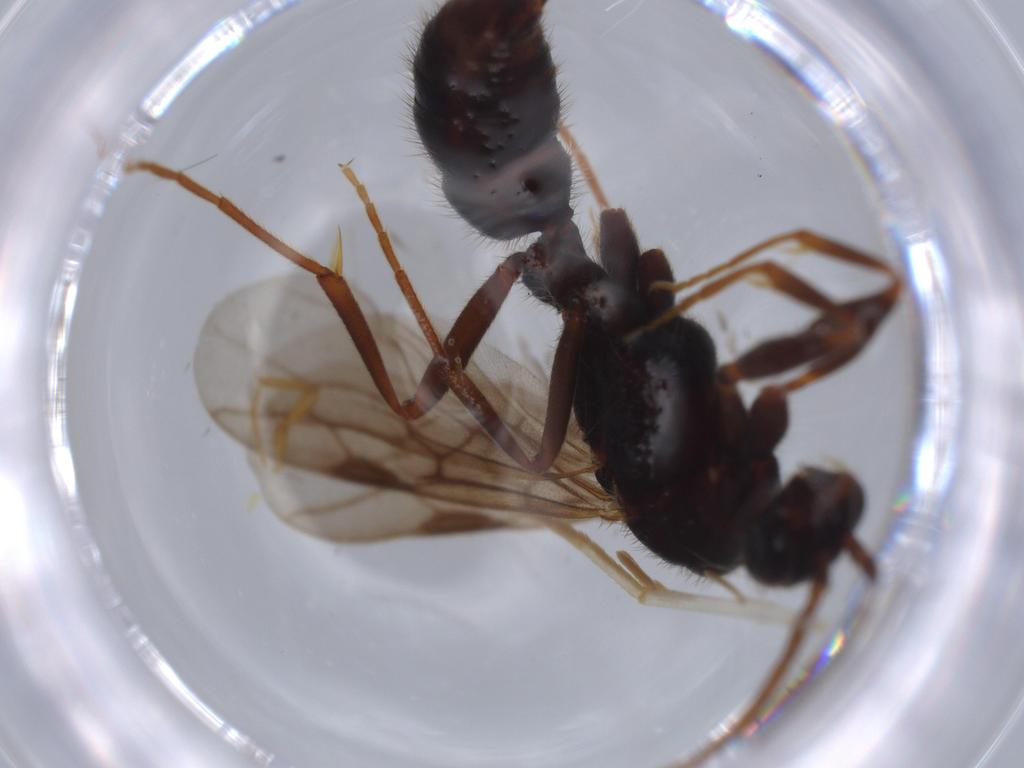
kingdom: Animalia
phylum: Arthropoda
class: Insecta
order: Hymenoptera
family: Formicidae
